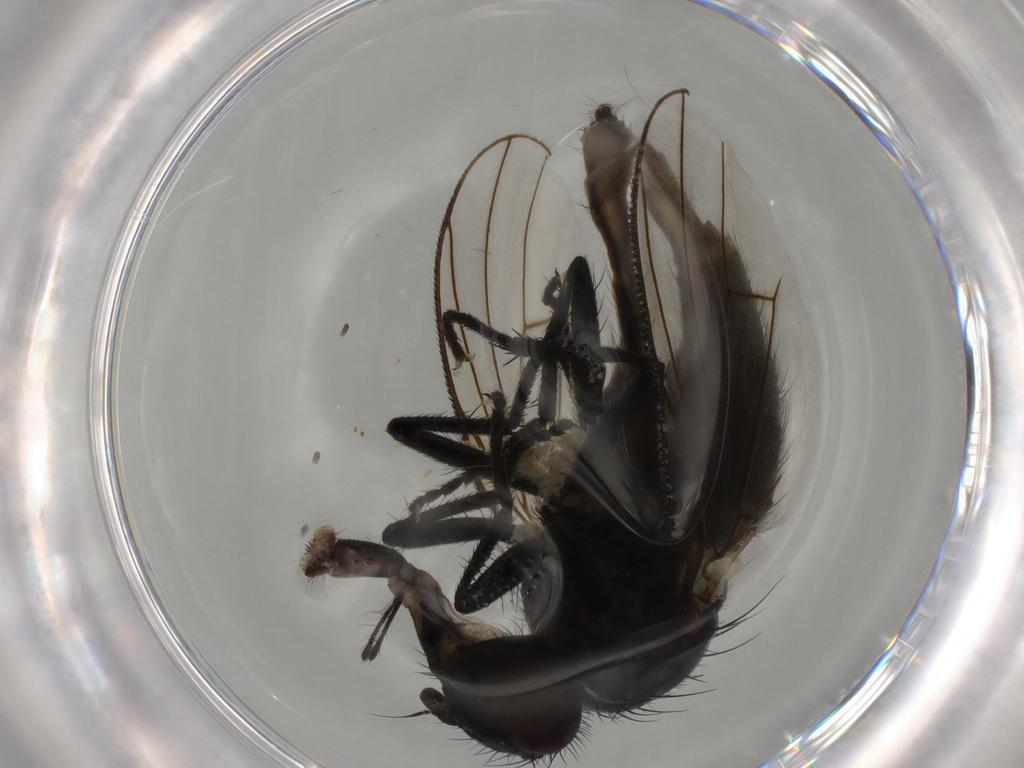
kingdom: Animalia
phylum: Arthropoda
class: Insecta
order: Diptera
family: Muscidae
